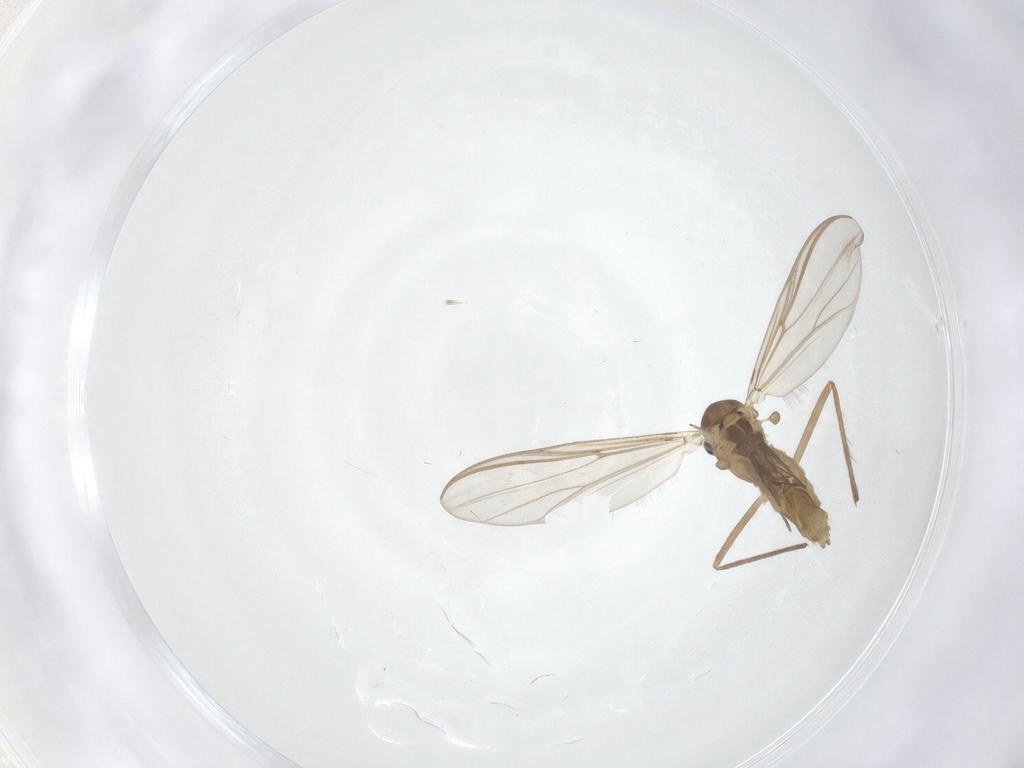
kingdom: Animalia
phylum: Arthropoda
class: Insecta
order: Diptera
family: Chironomidae
